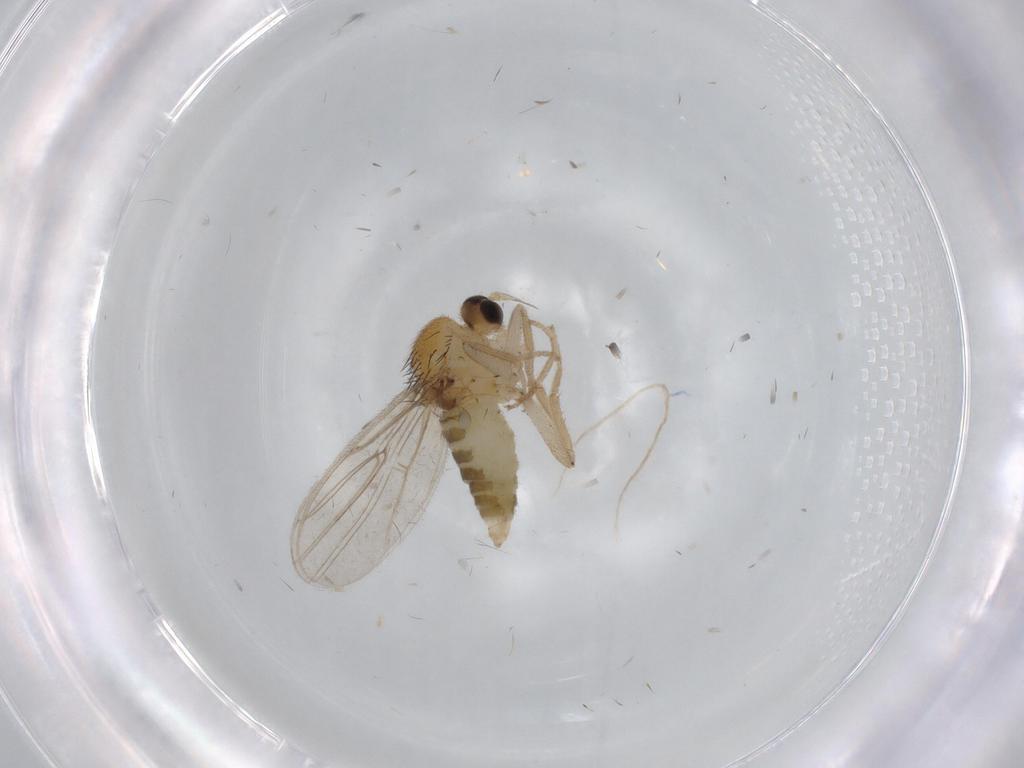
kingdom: Animalia
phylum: Arthropoda
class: Insecta
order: Diptera
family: Hybotidae
